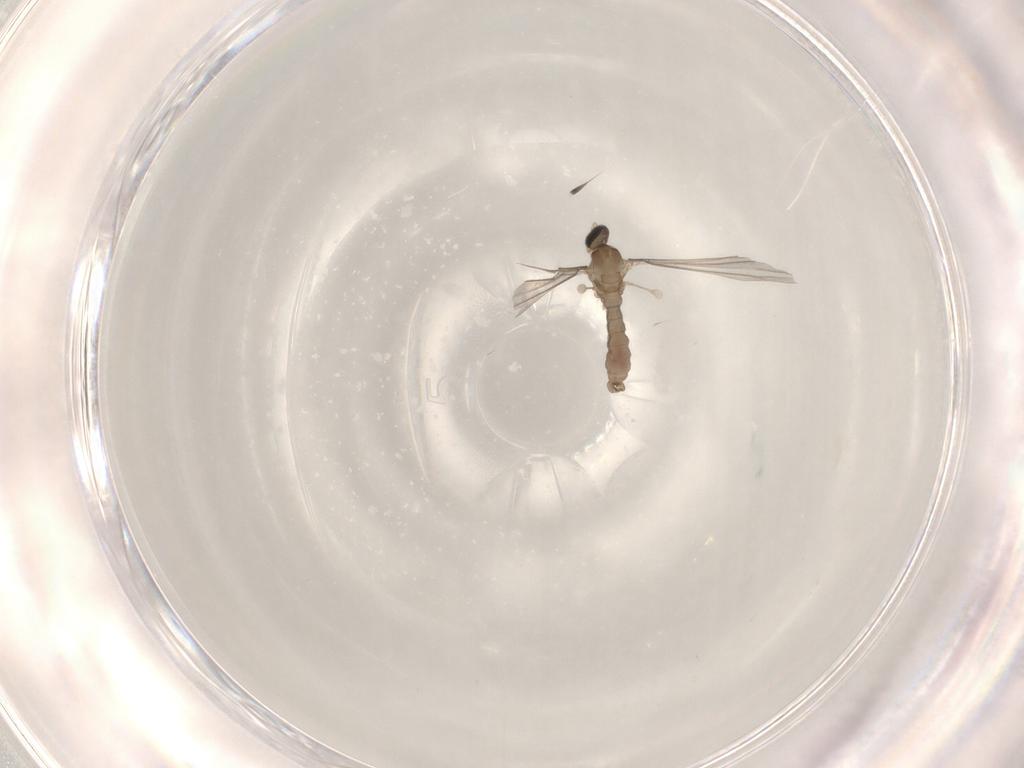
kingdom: Animalia
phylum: Arthropoda
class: Insecta
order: Diptera
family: Cecidomyiidae
